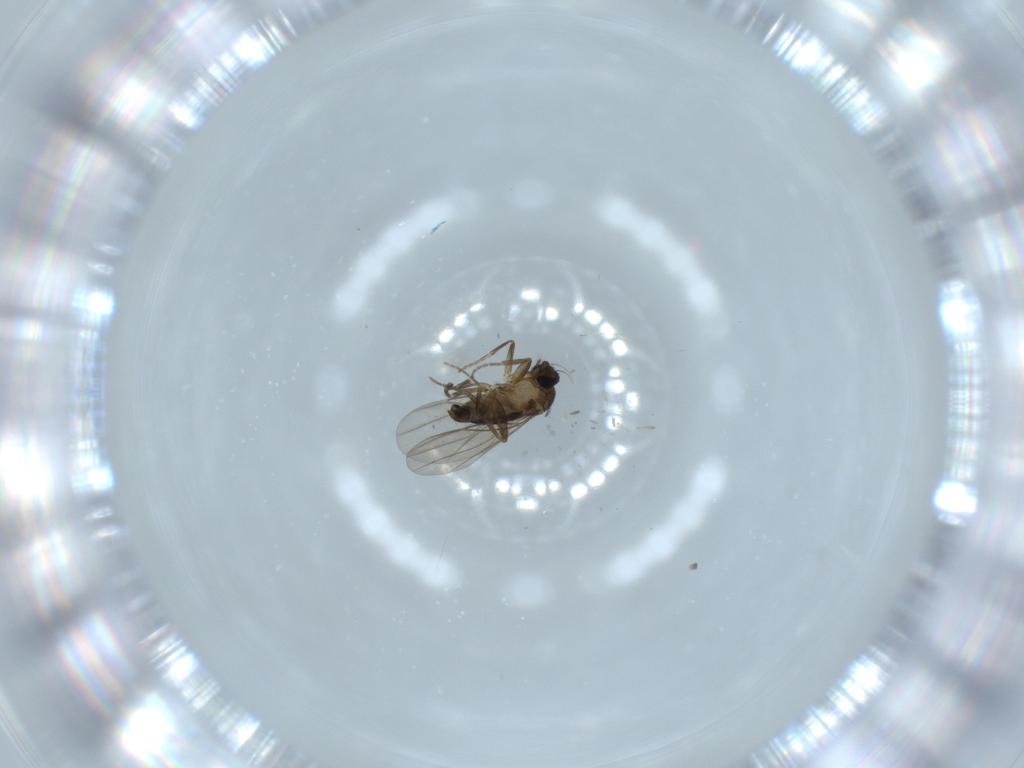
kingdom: Animalia
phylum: Arthropoda
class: Insecta
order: Diptera
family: Phoridae
